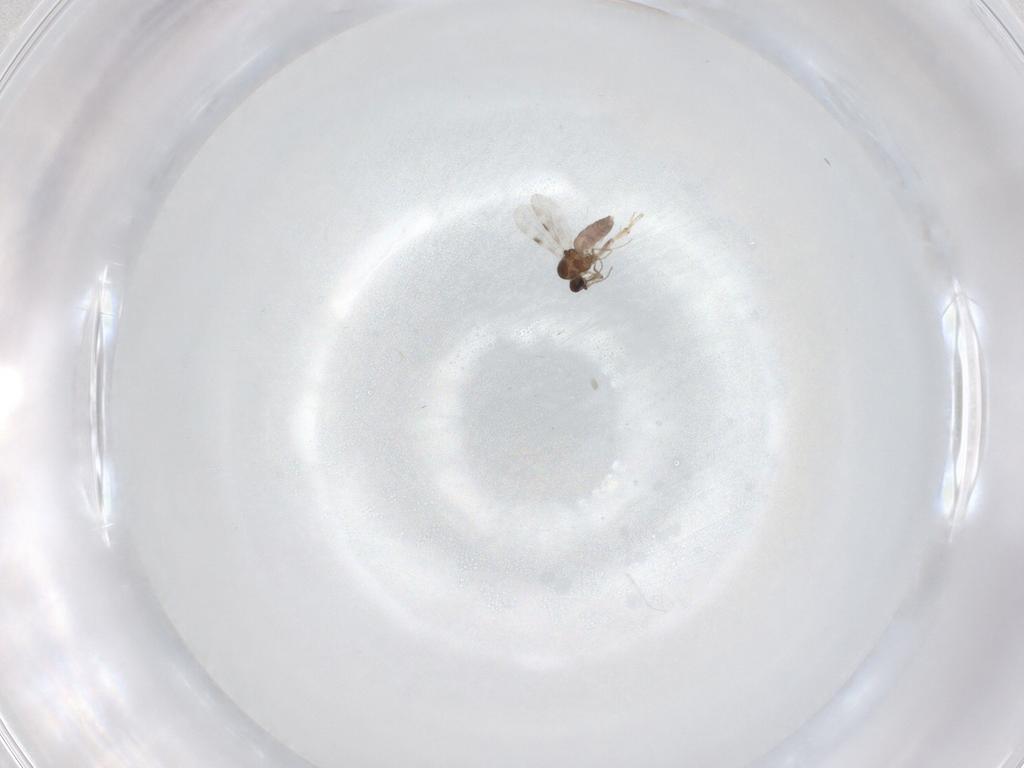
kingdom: Animalia
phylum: Arthropoda
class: Insecta
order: Diptera
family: Phoridae
